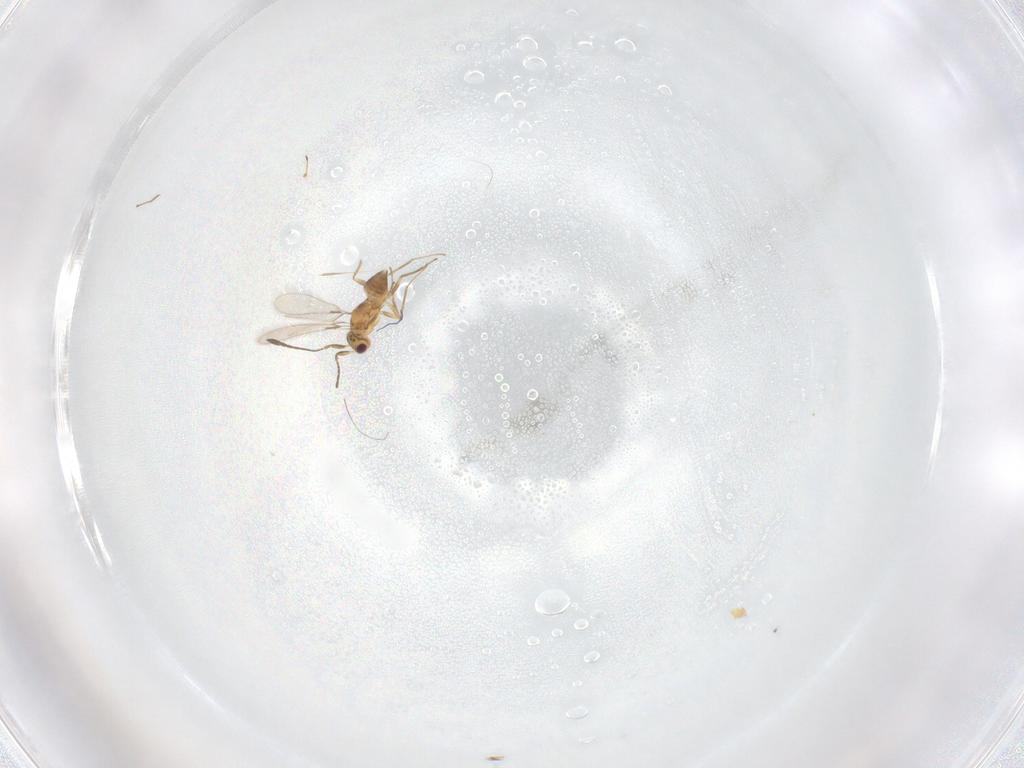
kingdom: Animalia
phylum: Arthropoda
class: Insecta
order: Hymenoptera
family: Mymaridae
